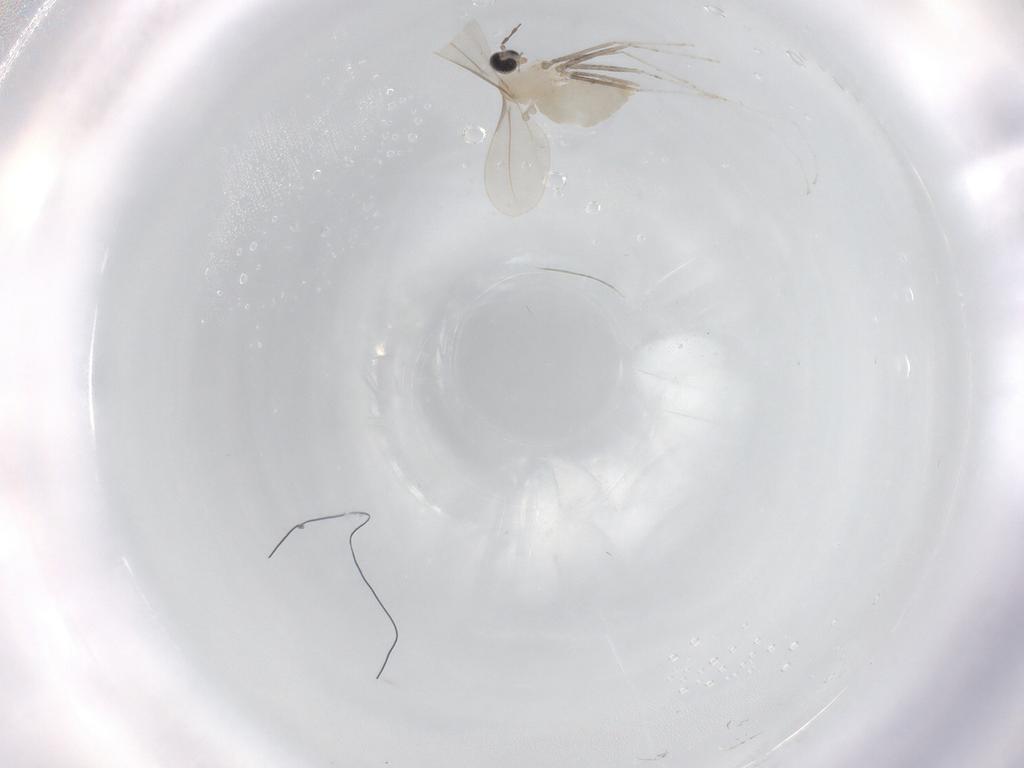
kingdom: Animalia
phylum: Arthropoda
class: Insecta
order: Diptera
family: Cecidomyiidae
